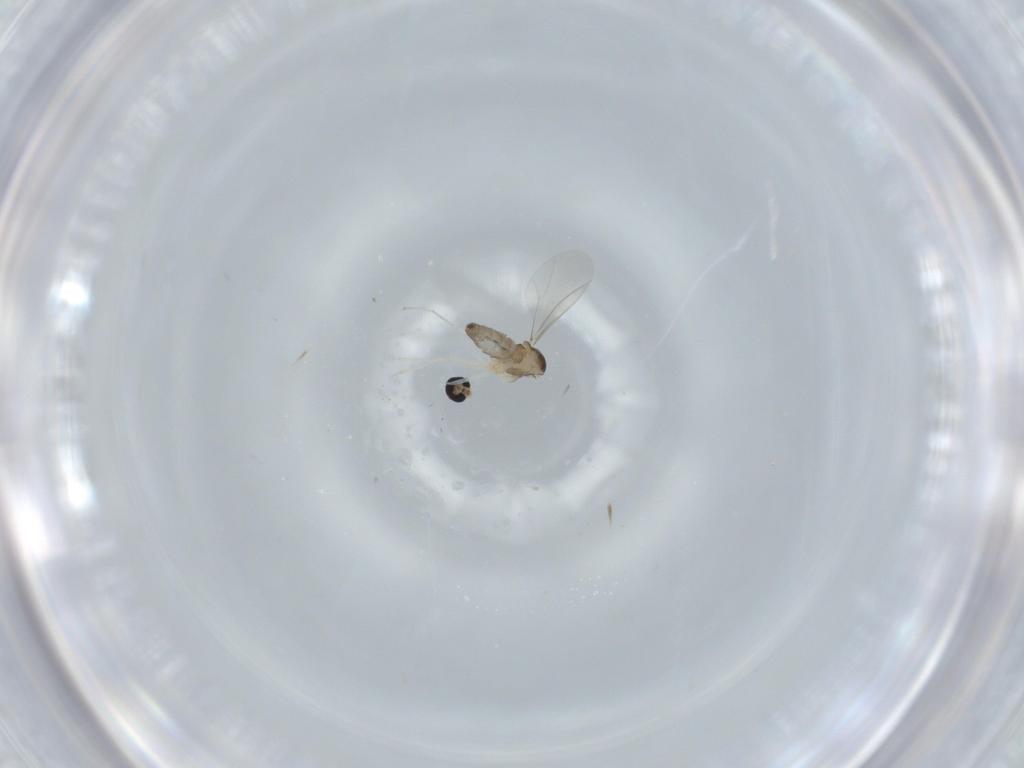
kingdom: Animalia
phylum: Arthropoda
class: Insecta
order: Diptera
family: Cecidomyiidae
